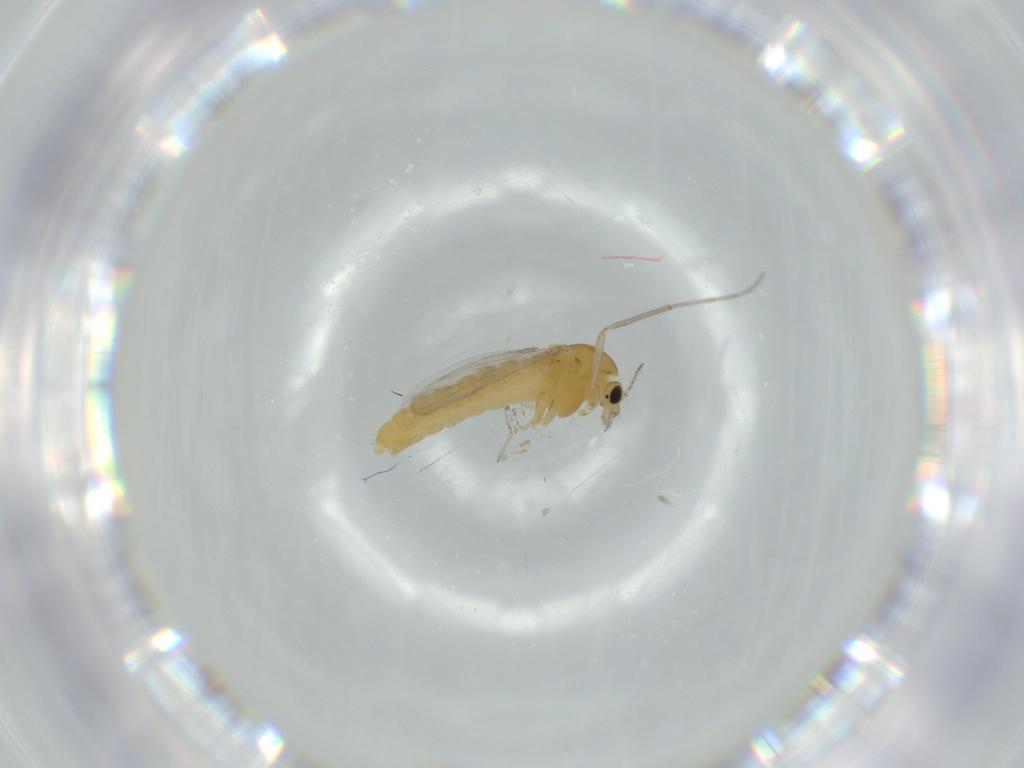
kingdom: Animalia
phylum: Arthropoda
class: Insecta
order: Diptera
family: Chironomidae
